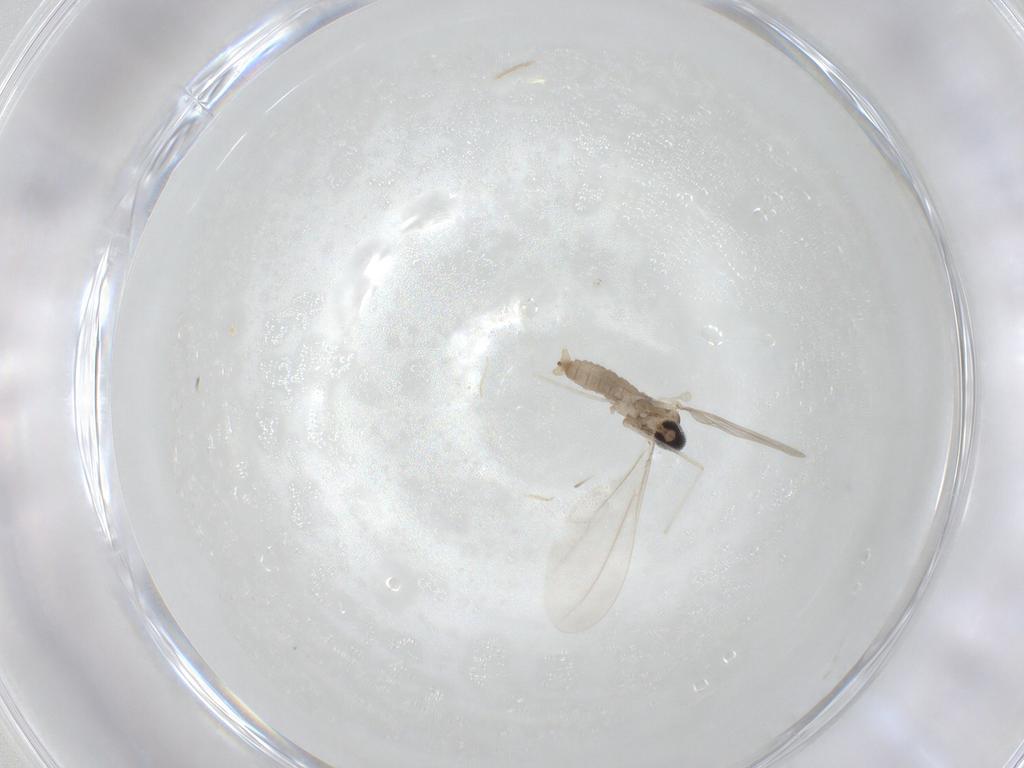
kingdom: Animalia
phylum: Arthropoda
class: Insecta
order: Diptera
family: Cecidomyiidae
